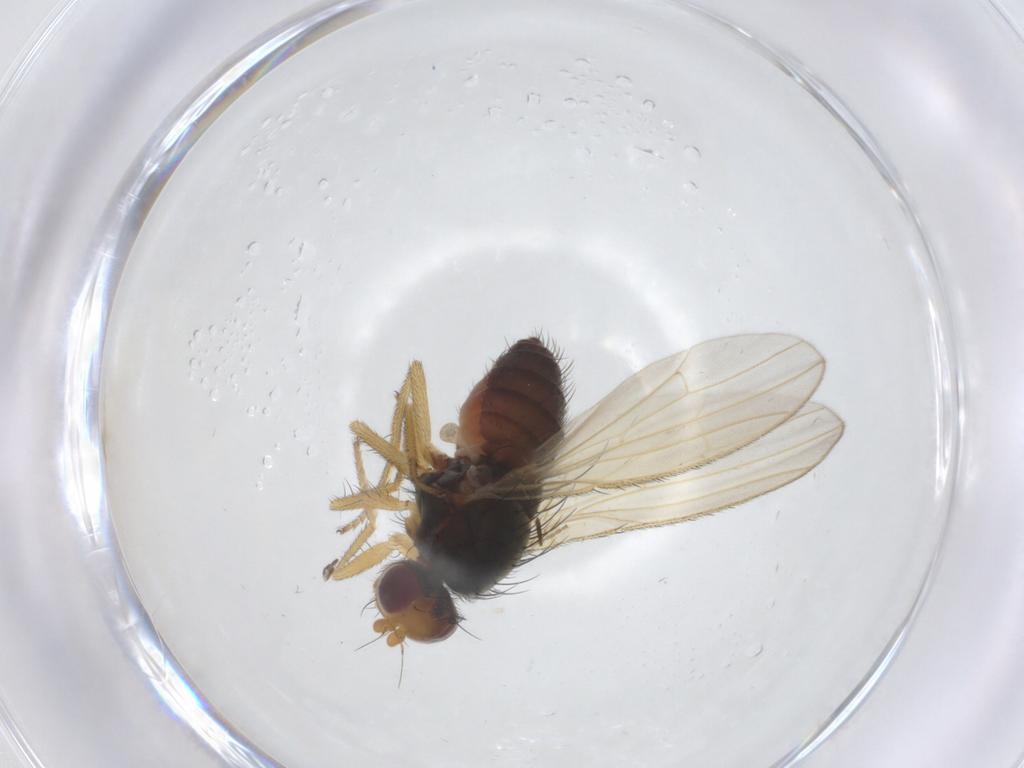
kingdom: Animalia
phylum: Arthropoda
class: Insecta
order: Diptera
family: Heleomyzidae
